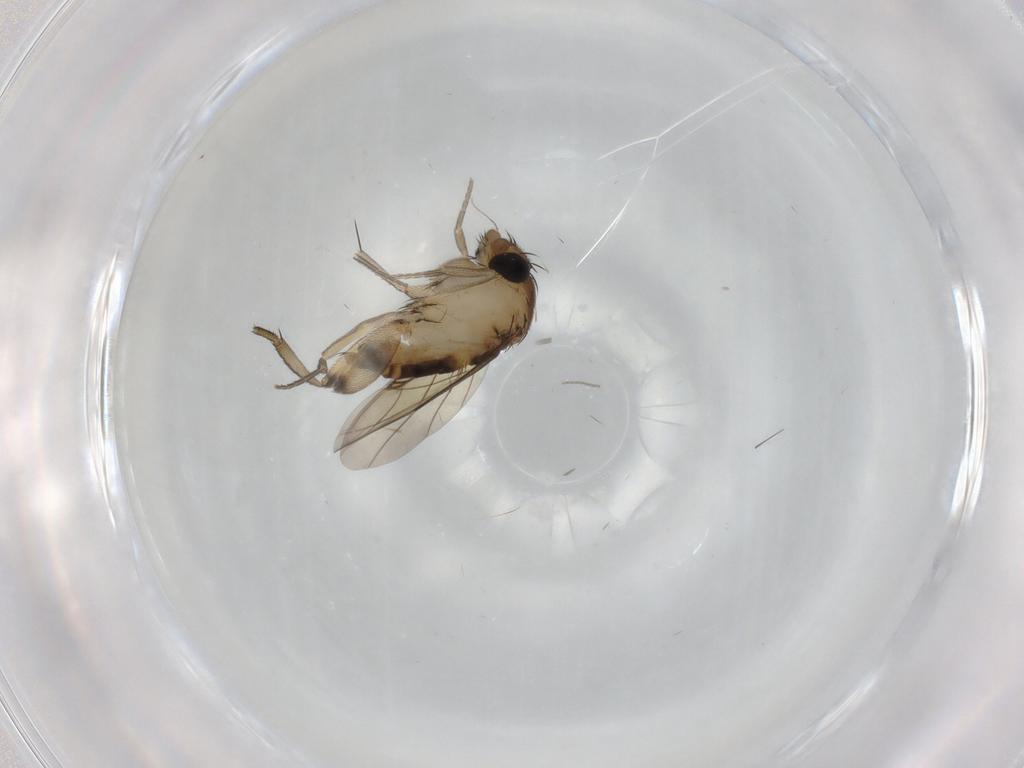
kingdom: Animalia
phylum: Arthropoda
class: Insecta
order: Diptera
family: Phoridae
